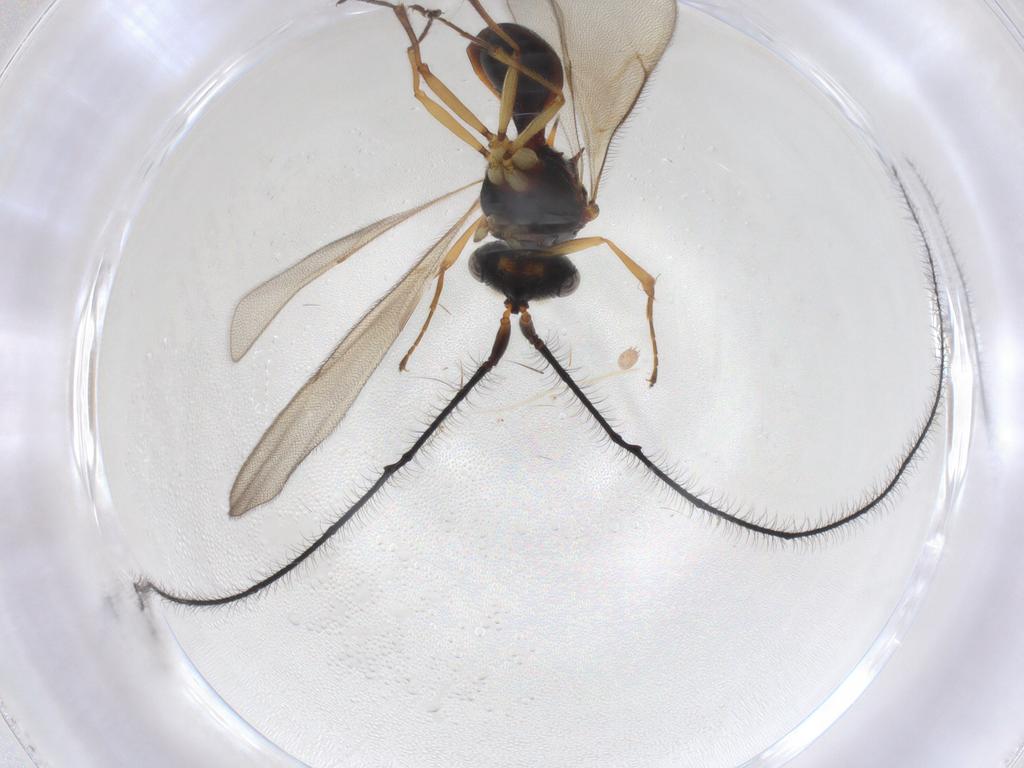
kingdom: Animalia
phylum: Arthropoda
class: Insecta
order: Hymenoptera
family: Scelionidae
